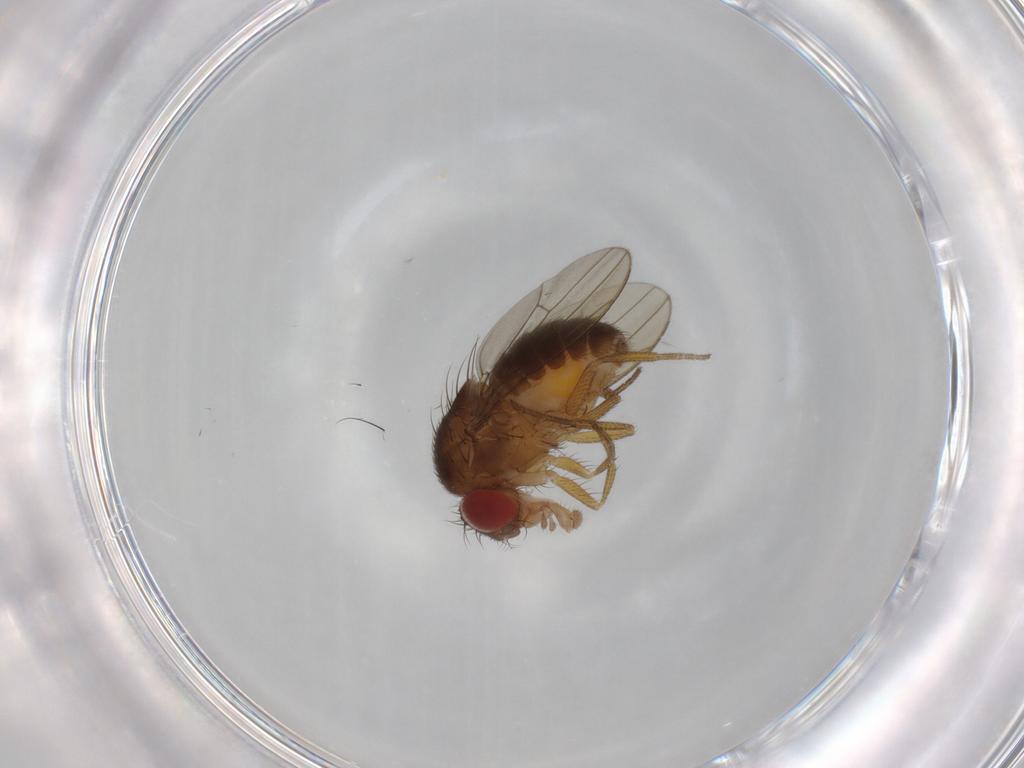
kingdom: Animalia
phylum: Arthropoda
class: Insecta
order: Diptera
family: Drosophilidae
